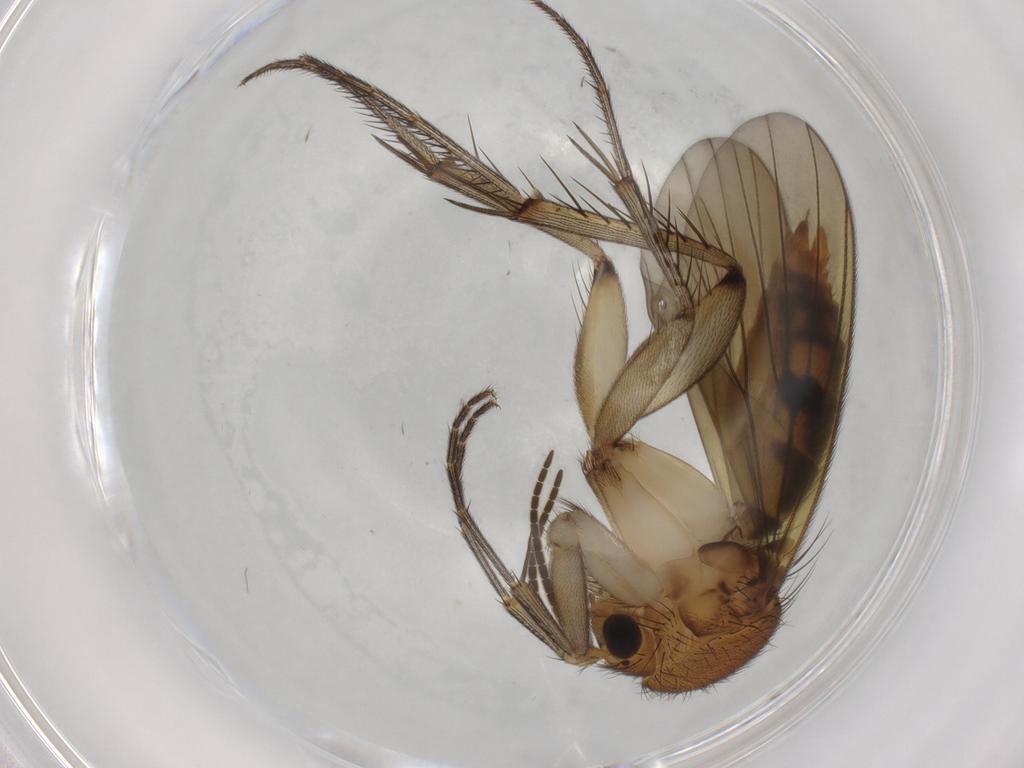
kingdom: Animalia
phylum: Arthropoda
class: Insecta
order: Diptera
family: Mycetophilidae
